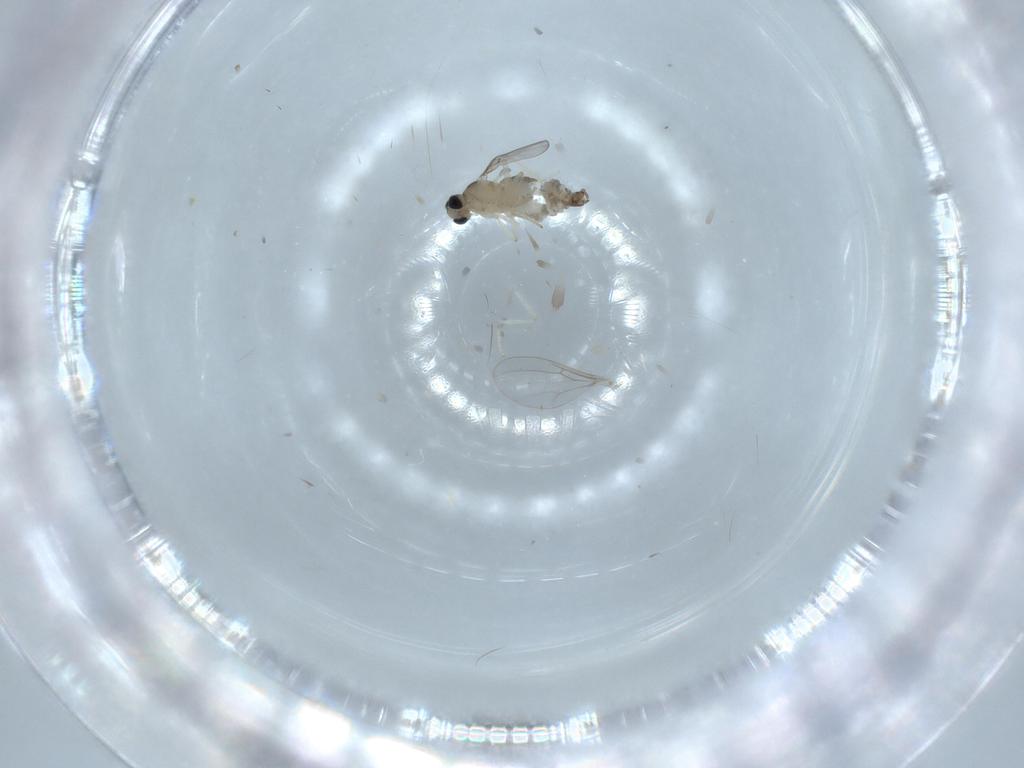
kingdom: Animalia
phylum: Arthropoda
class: Insecta
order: Diptera
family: Cecidomyiidae
